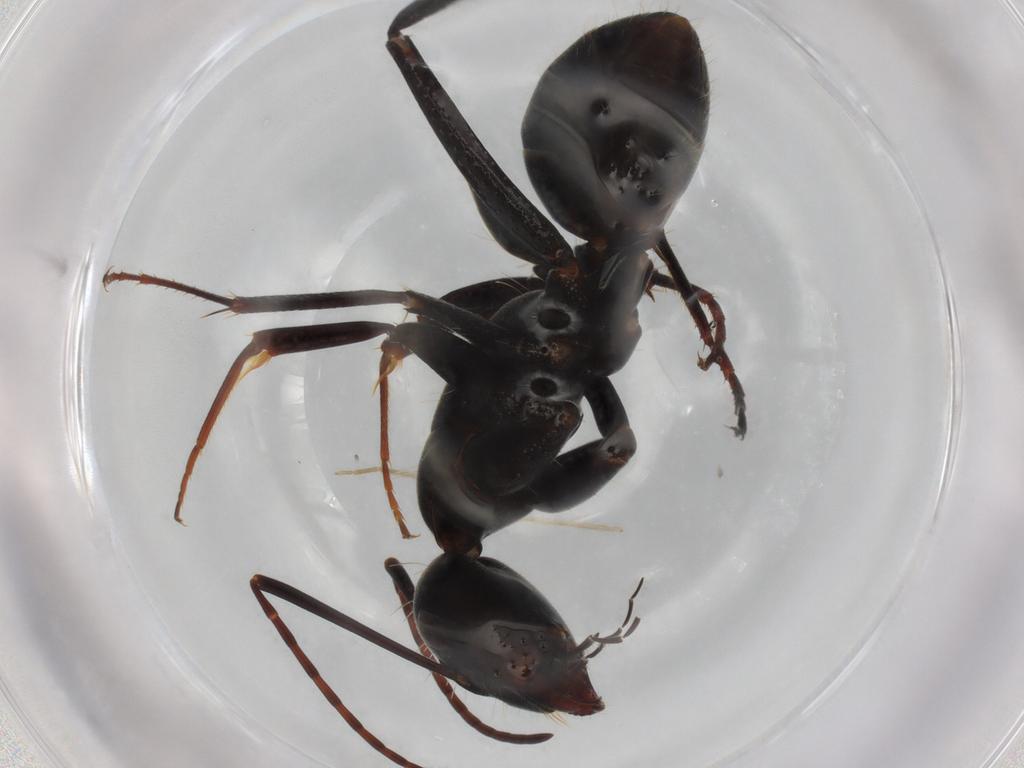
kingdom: Animalia
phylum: Arthropoda
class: Insecta
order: Hymenoptera
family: Formicidae
